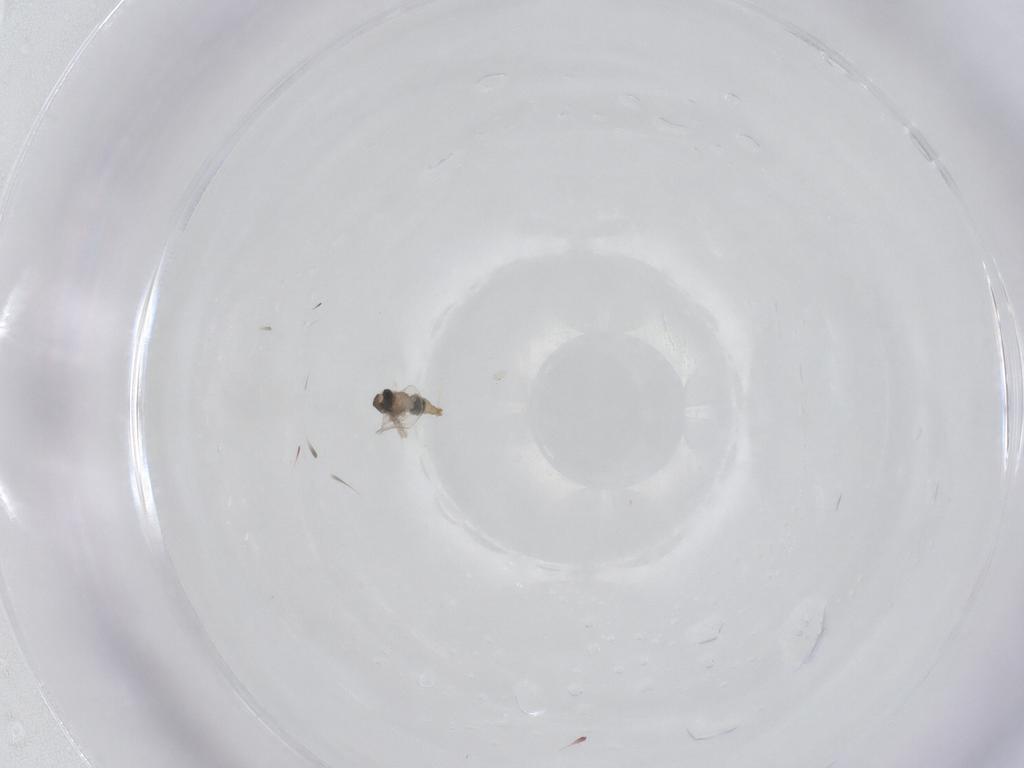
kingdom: Animalia
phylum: Arthropoda
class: Insecta
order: Diptera
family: Cecidomyiidae
